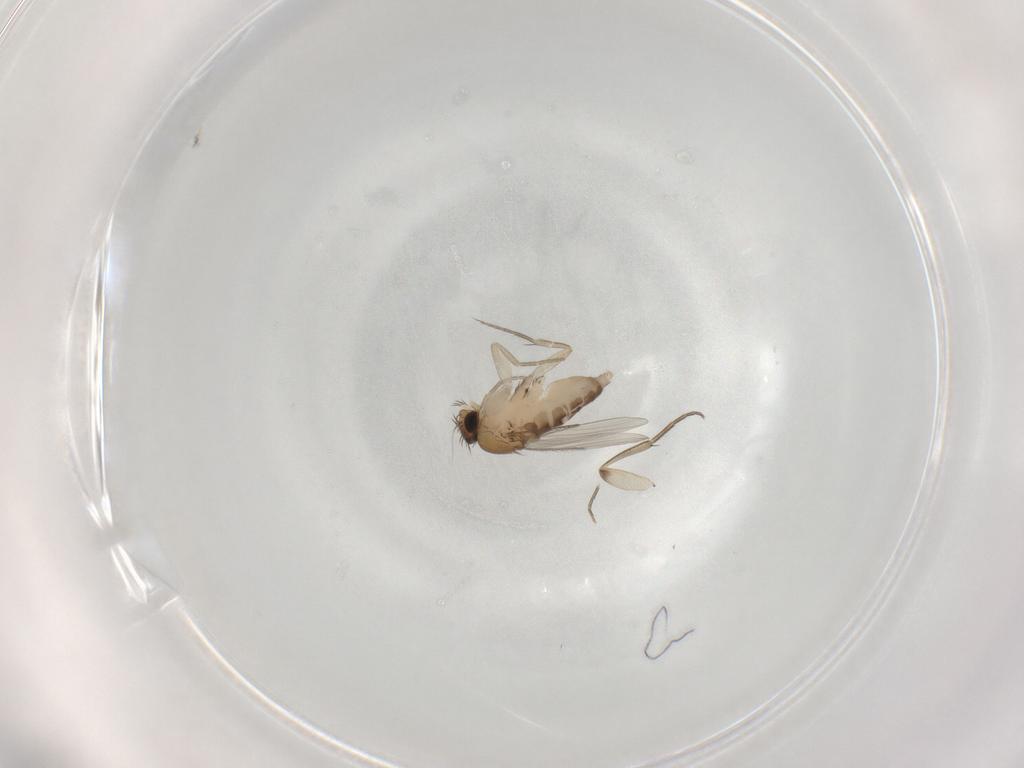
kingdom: Animalia
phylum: Arthropoda
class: Insecta
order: Diptera
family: Phoridae
